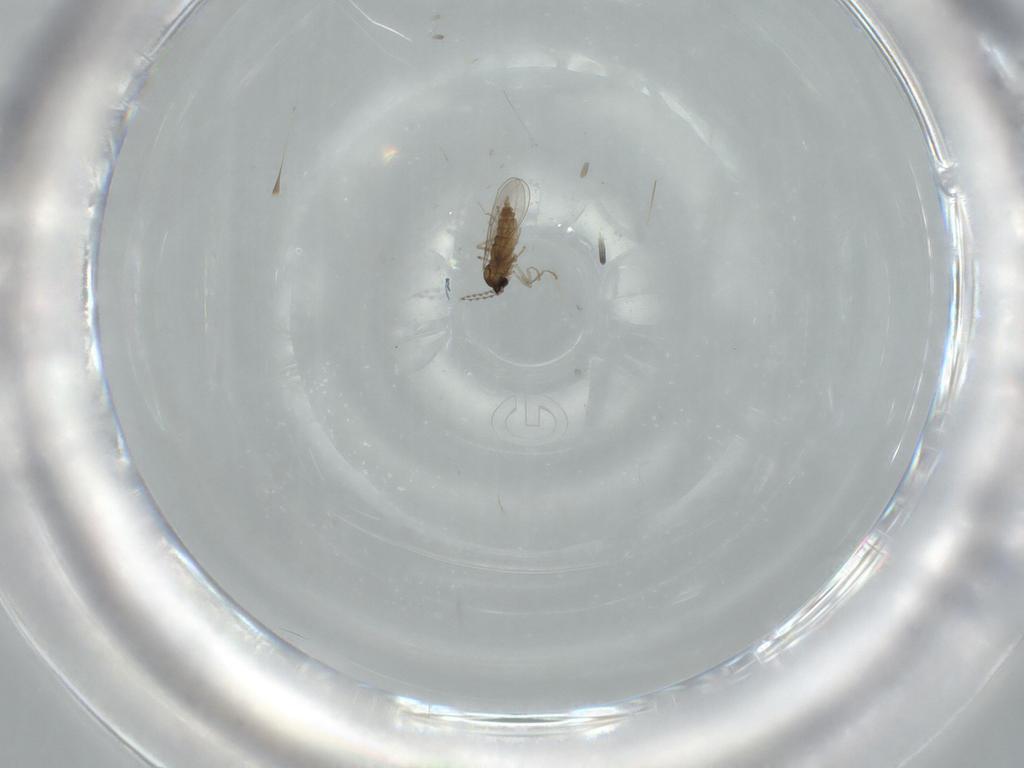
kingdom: Animalia
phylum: Arthropoda
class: Insecta
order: Diptera
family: Cecidomyiidae
